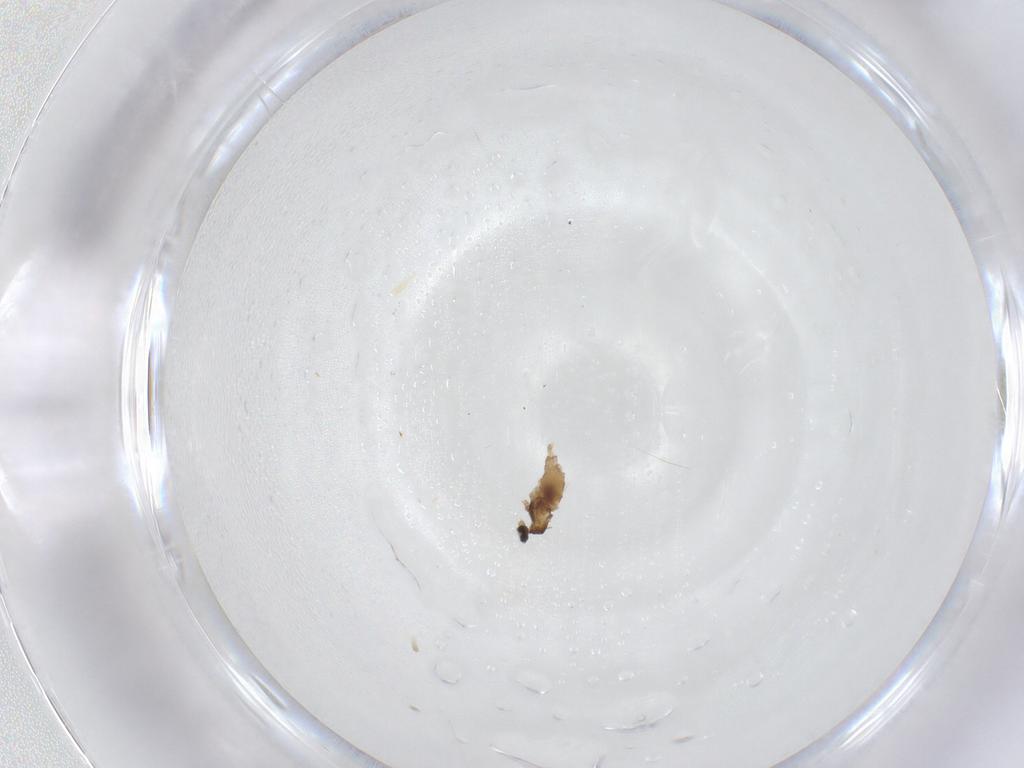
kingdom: Animalia
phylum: Arthropoda
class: Insecta
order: Diptera
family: Cecidomyiidae
